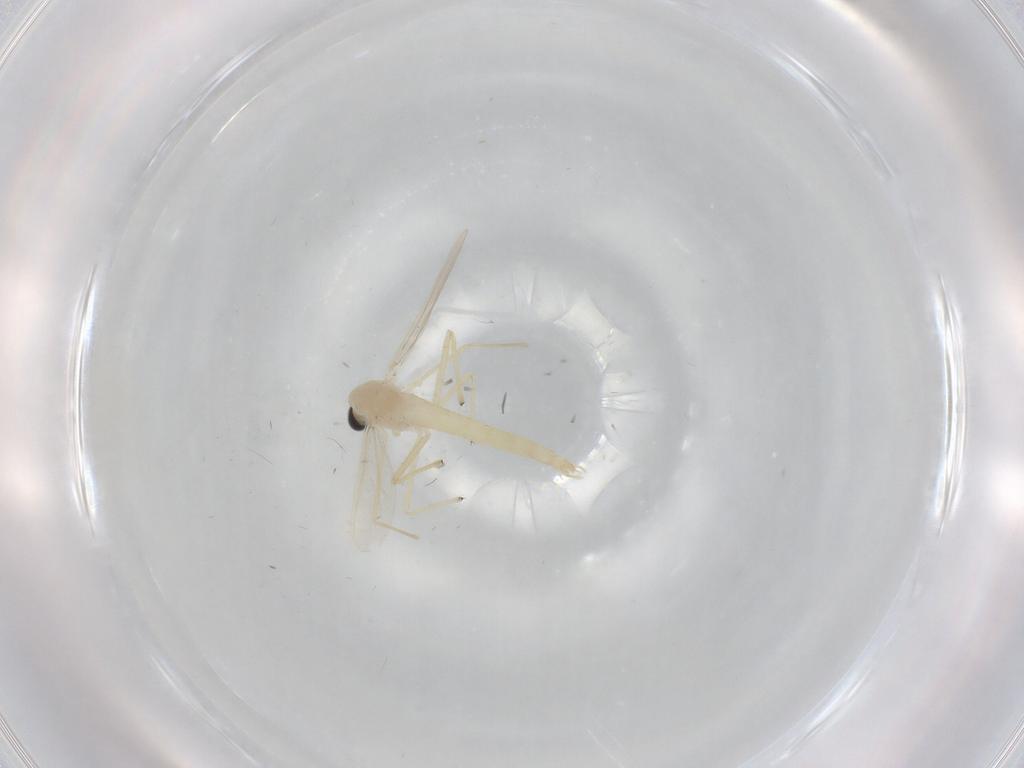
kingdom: Animalia
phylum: Arthropoda
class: Insecta
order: Diptera
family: Chironomidae
